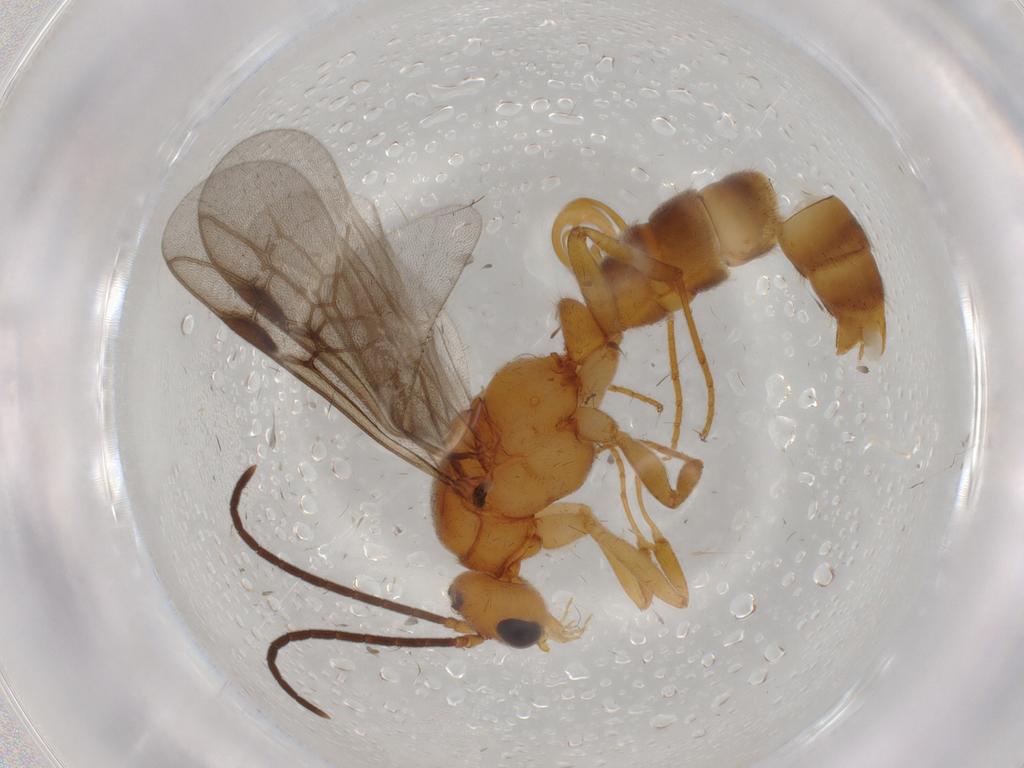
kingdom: Animalia
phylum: Arthropoda
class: Insecta
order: Hymenoptera
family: Formicidae
